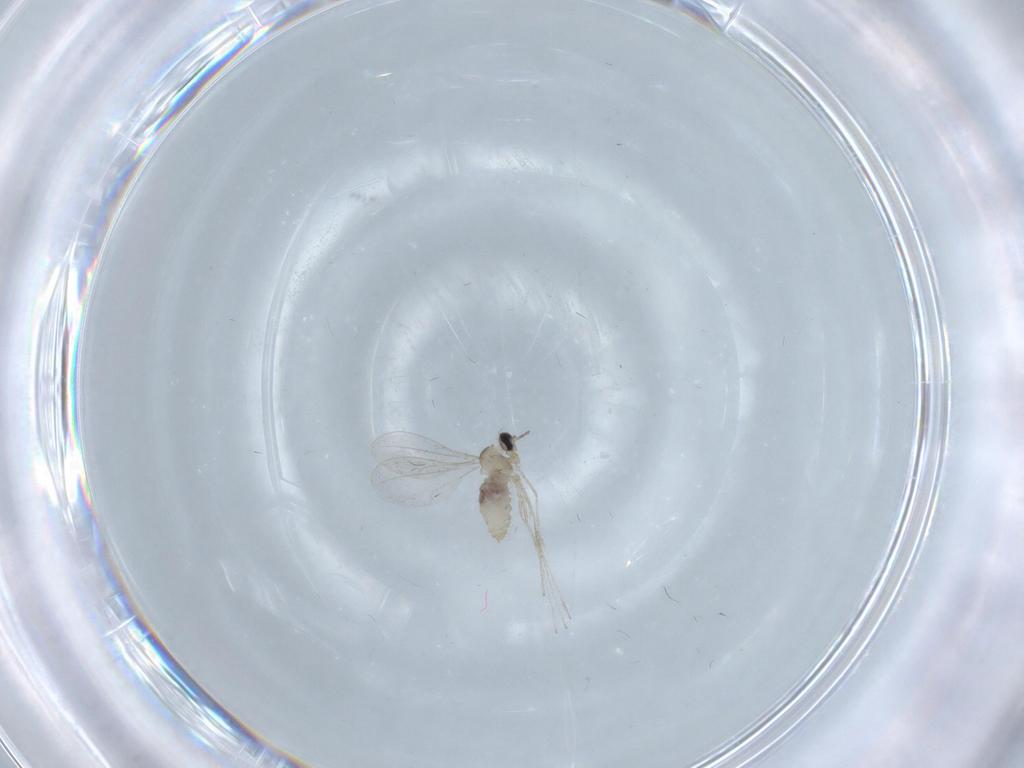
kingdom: Animalia
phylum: Arthropoda
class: Insecta
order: Diptera
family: Cecidomyiidae
